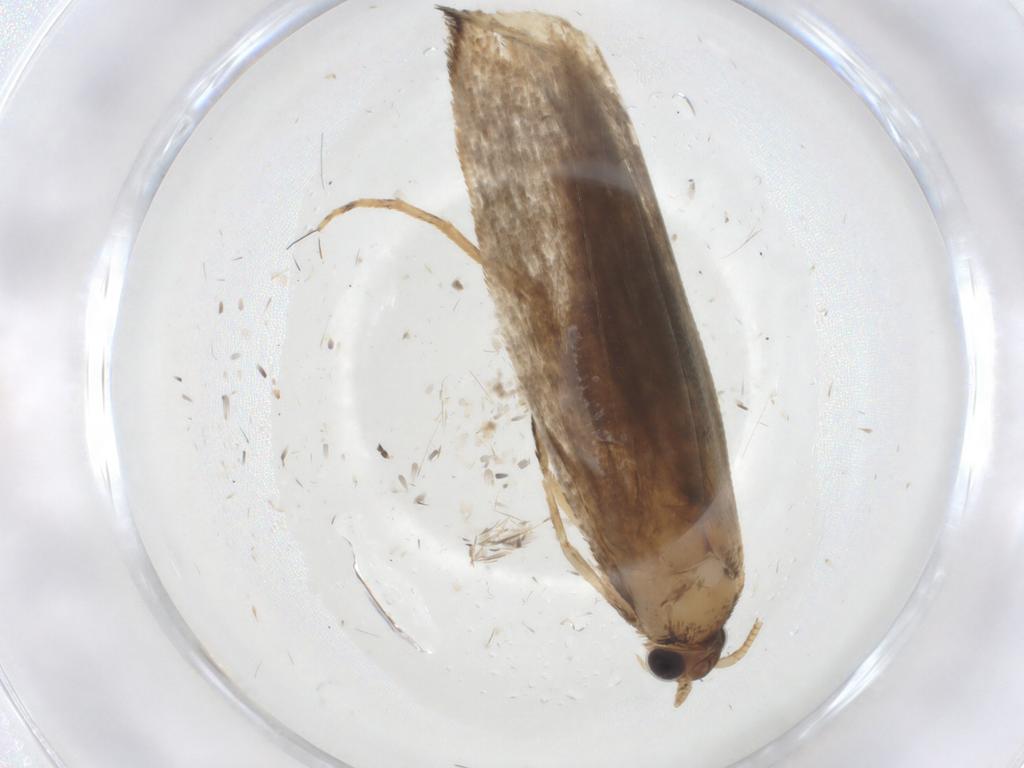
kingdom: Animalia
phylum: Arthropoda
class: Insecta
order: Lepidoptera
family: Tineidae
